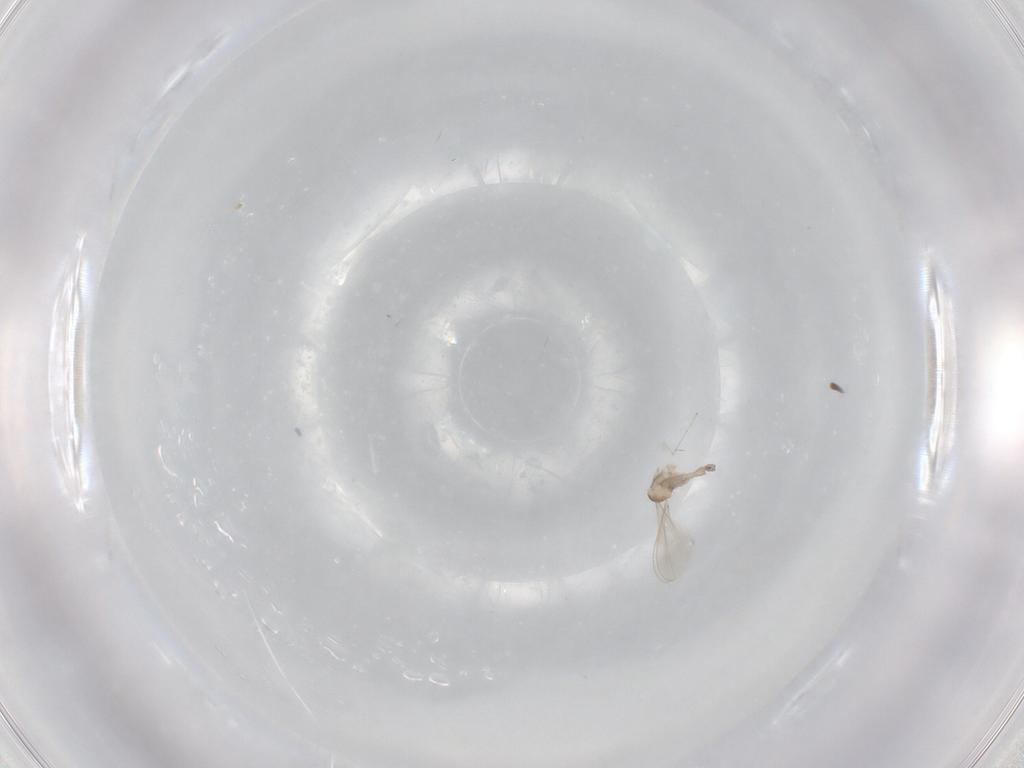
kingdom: Animalia
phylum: Arthropoda
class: Insecta
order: Diptera
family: Cecidomyiidae
